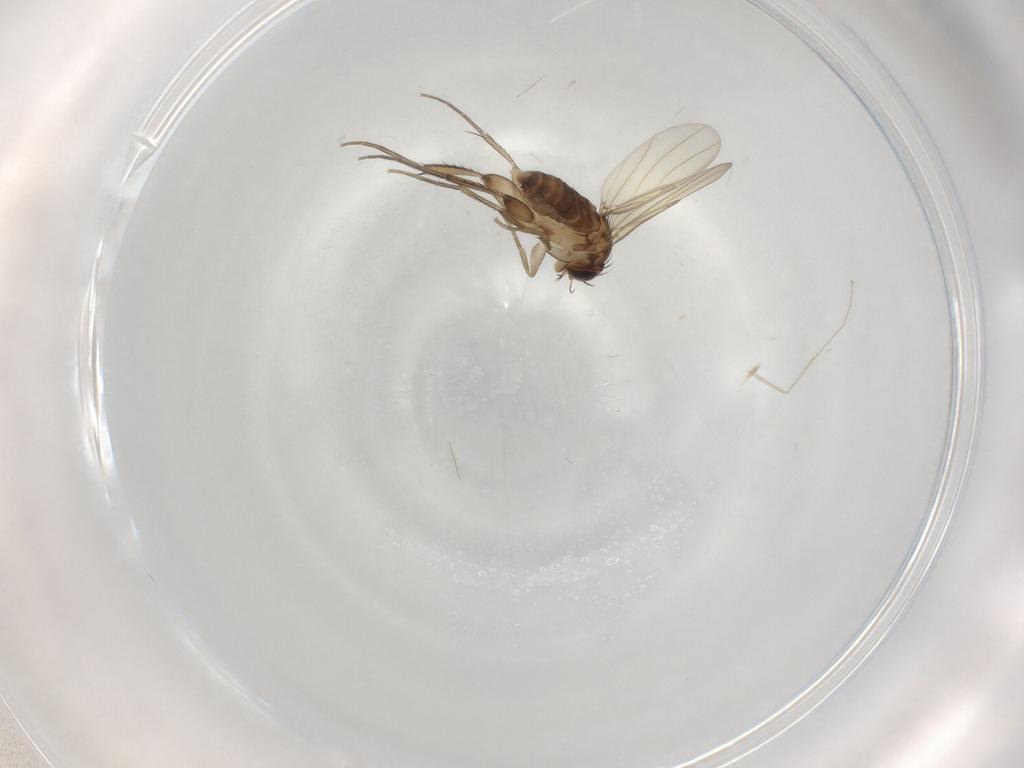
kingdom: Animalia
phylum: Arthropoda
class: Insecta
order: Diptera
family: Phoridae
